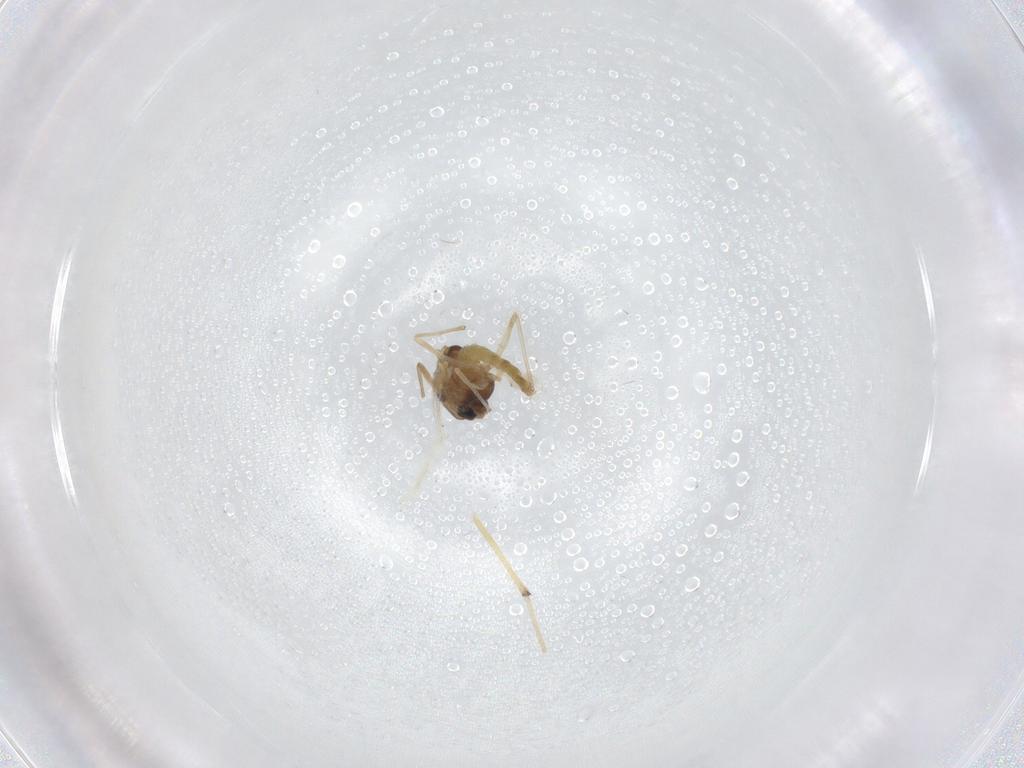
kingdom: Animalia
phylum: Arthropoda
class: Insecta
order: Diptera
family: Chironomidae
